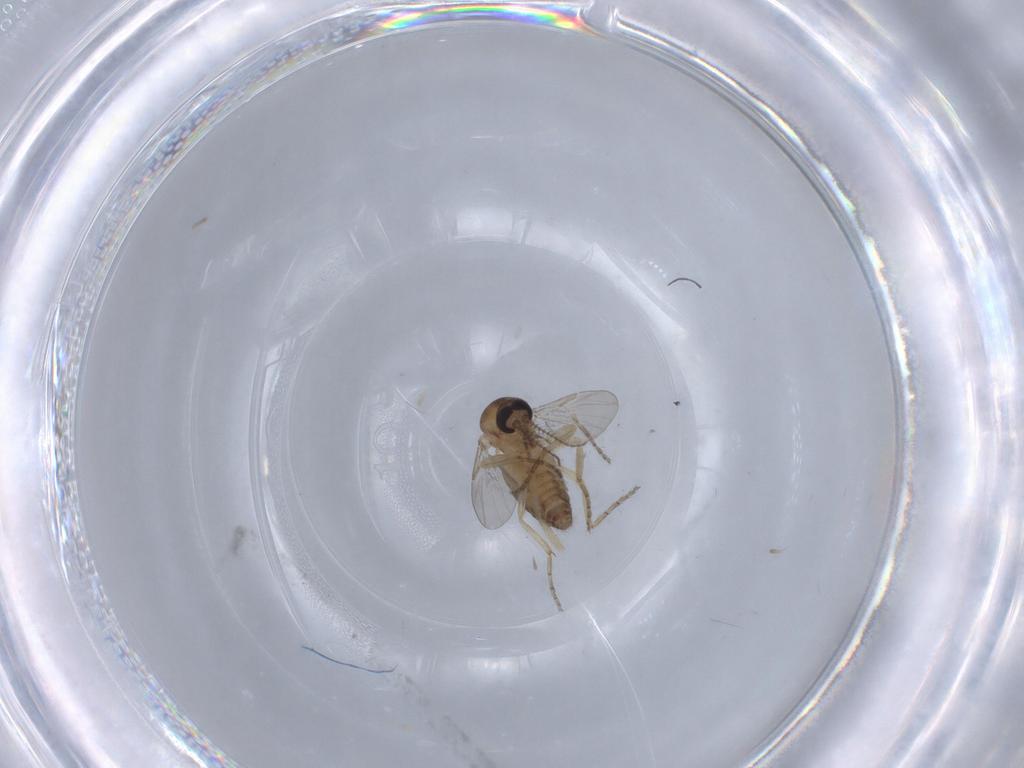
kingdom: Animalia
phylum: Arthropoda
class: Insecta
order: Diptera
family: Ceratopogonidae
